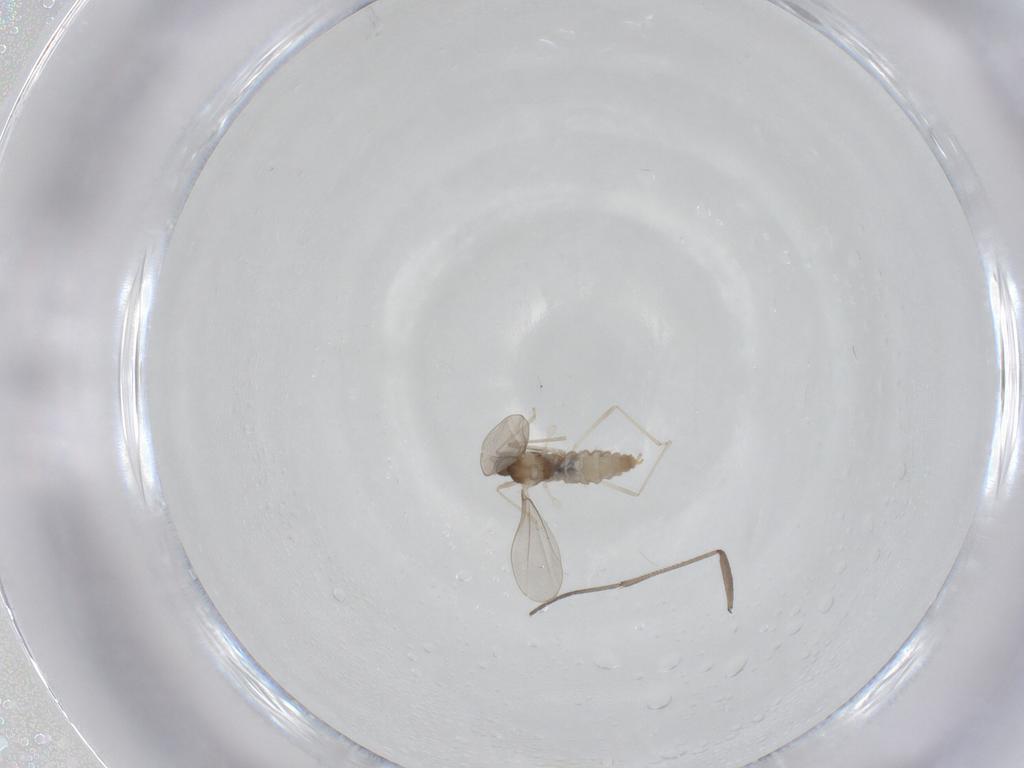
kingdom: Animalia
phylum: Arthropoda
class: Insecta
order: Diptera
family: Cecidomyiidae
